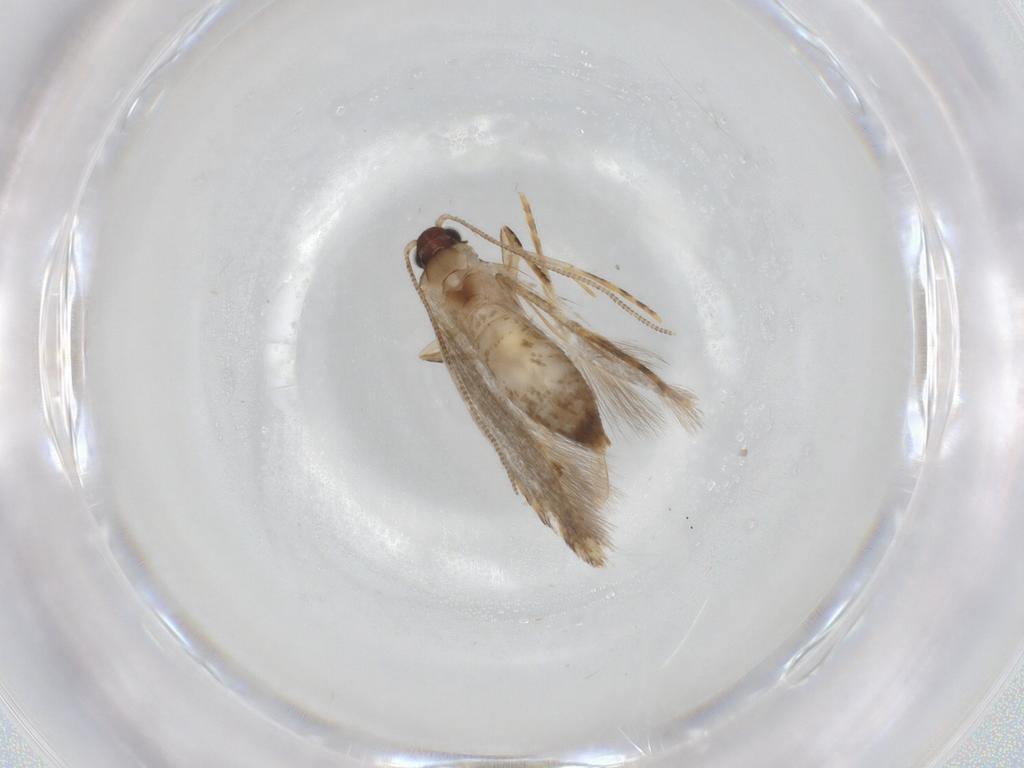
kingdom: Animalia
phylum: Arthropoda
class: Insecta
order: Lepidoptera
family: Tineidae
